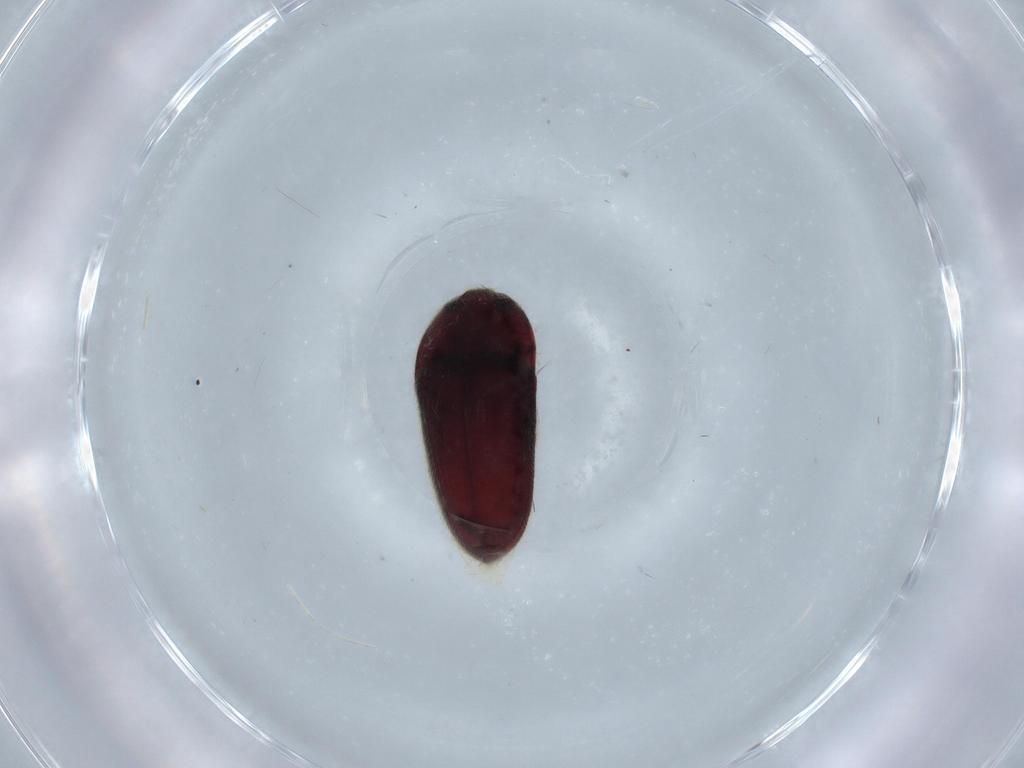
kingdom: Animalia
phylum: Arthropoda
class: Insecta
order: Coleoptera
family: Throscidae
